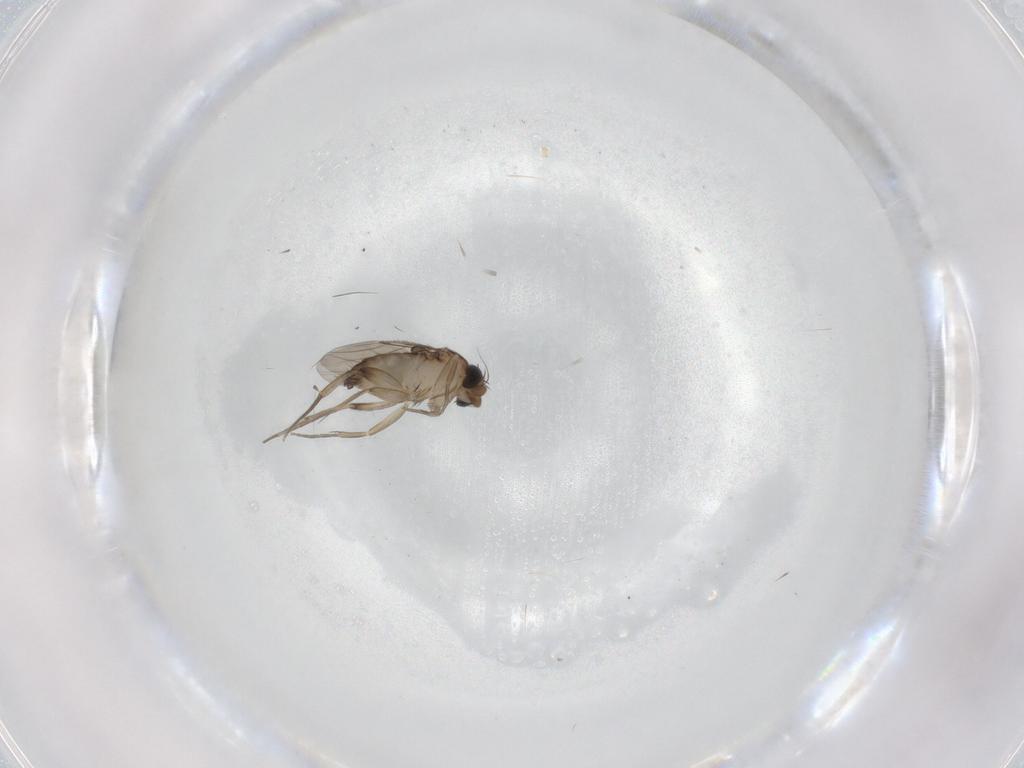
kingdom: Animalia
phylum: Arthropoda
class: Insecta
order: Diptera
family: Phoridae
